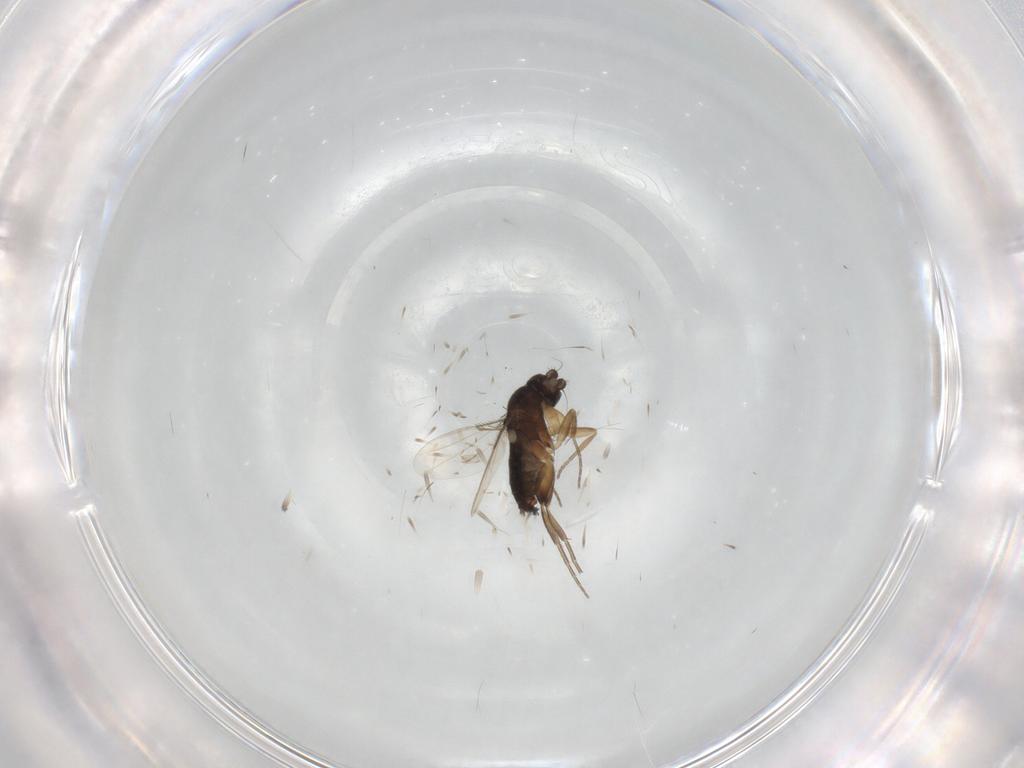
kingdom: Animalia
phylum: Arthropoda
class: Insecta
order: Diptera
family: Phoridae
